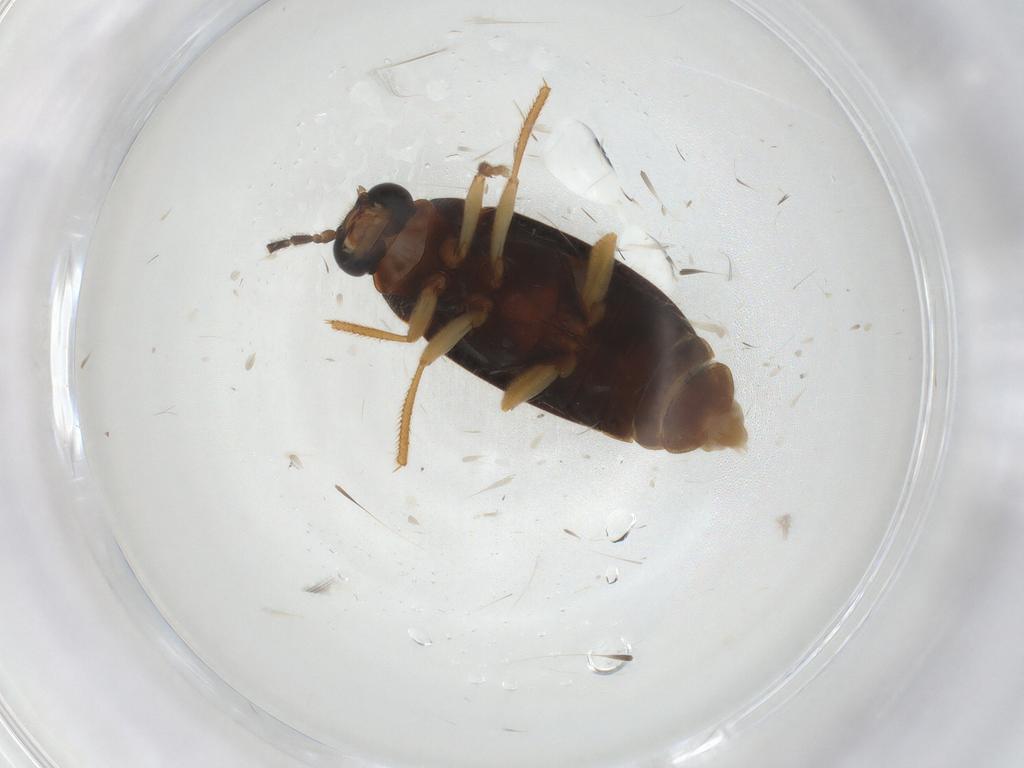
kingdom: Animalia
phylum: Arthropoda
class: Insecta
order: Coleoptera
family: Ptilodactylidae
